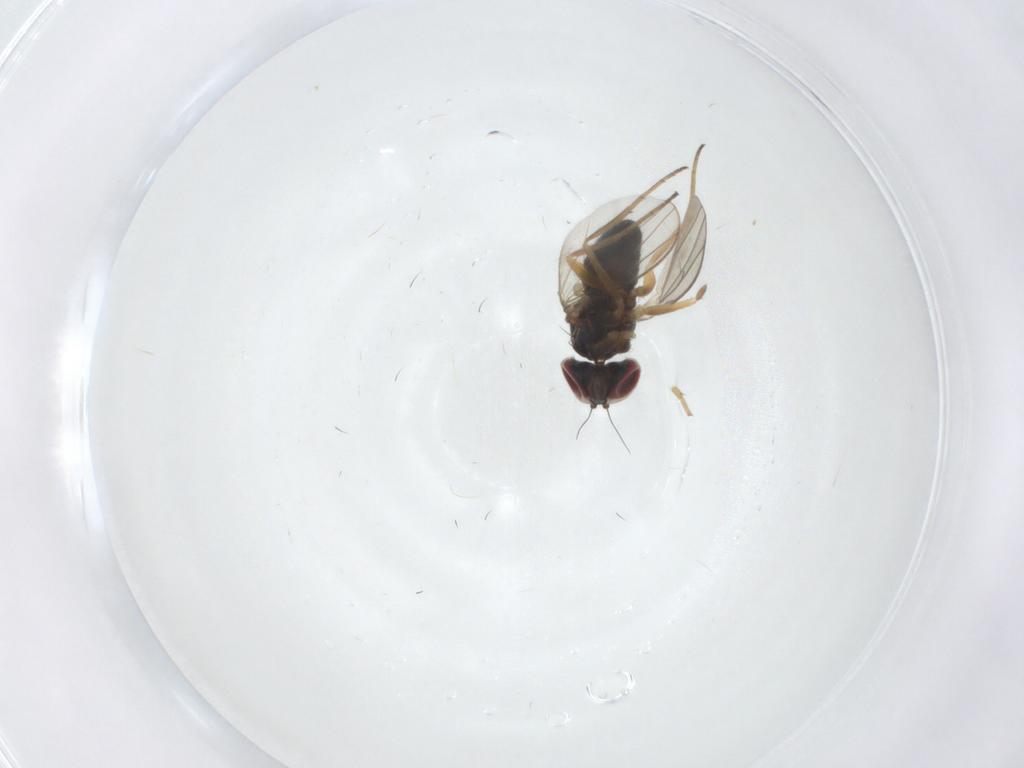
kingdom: Animalia
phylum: Arthropoda
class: Insecta
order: Diptera
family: Dolichopodidae
